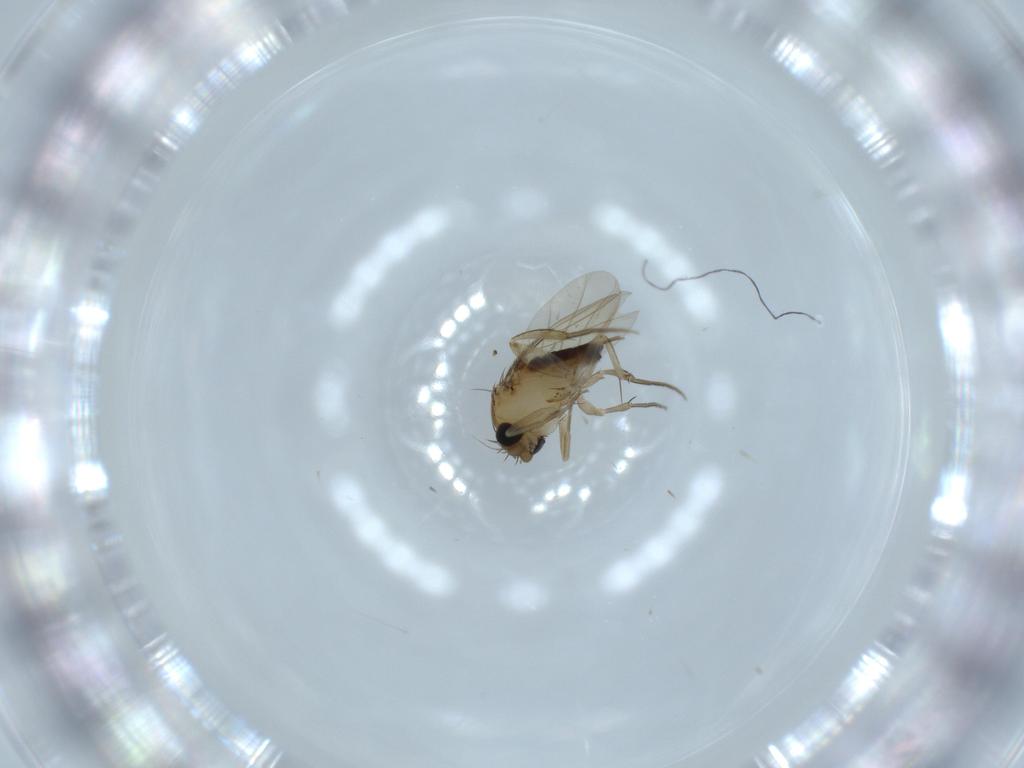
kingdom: Animalia
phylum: Arthropoda
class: Insecta
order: Diptera
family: Phoridae
